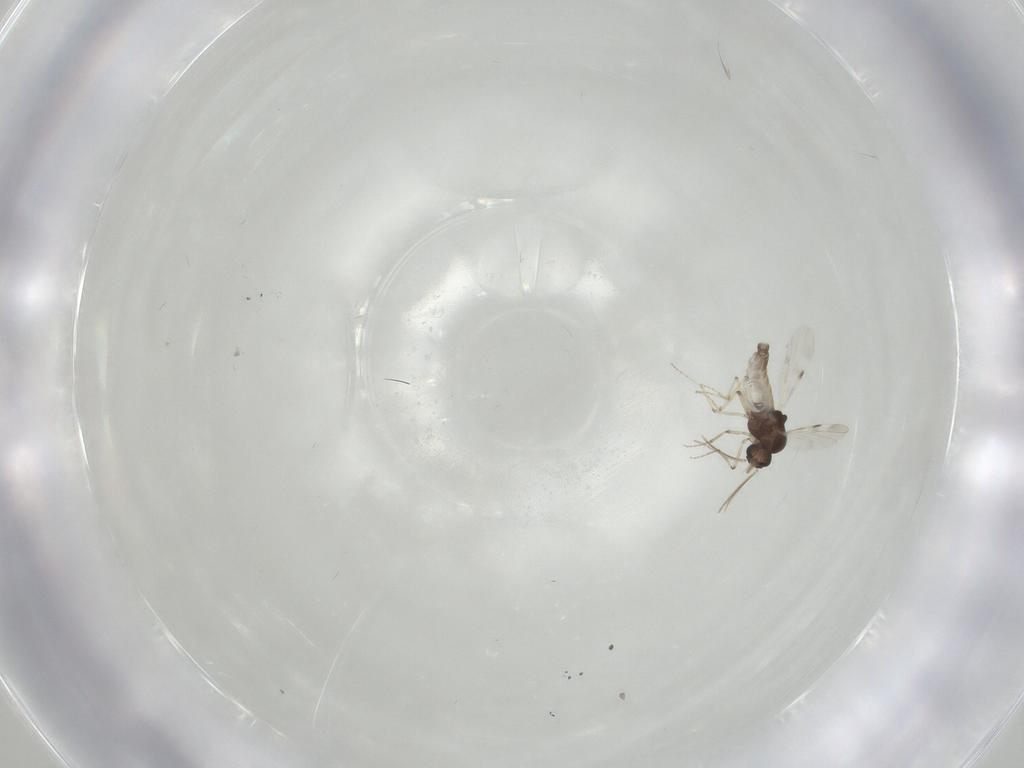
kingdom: Animalia
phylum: Arthropoda
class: Insecta
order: Diptera
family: Sciaridae
